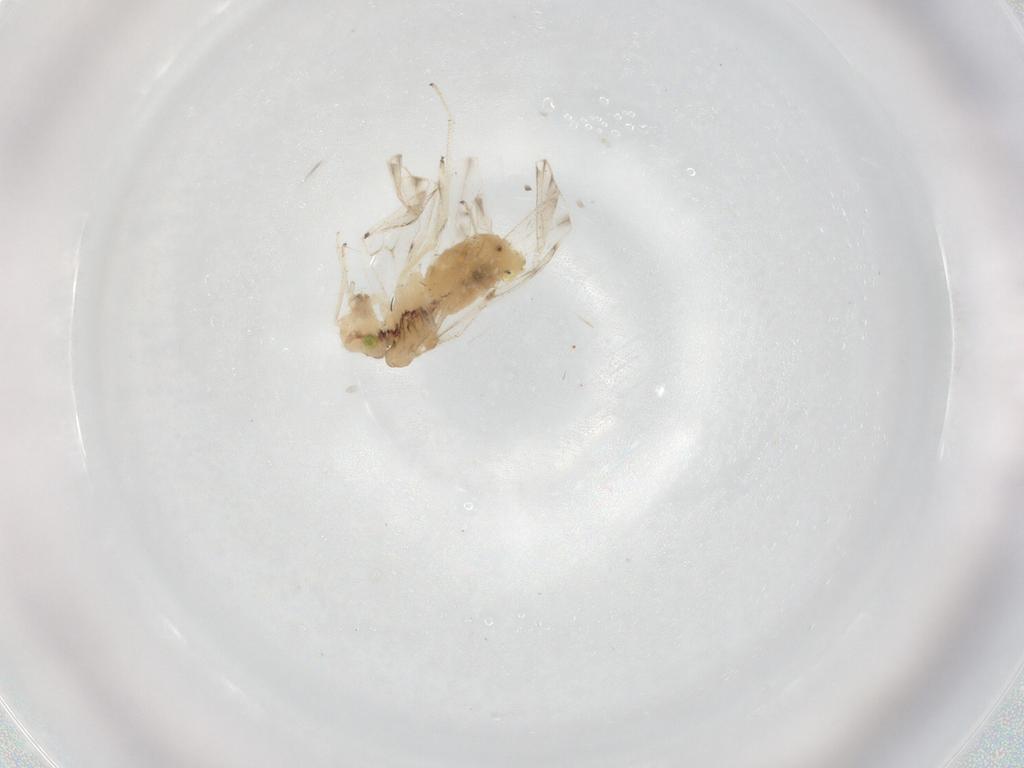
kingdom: Animalia
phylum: Arthropoda
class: Insecta
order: Psocodea
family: Ectopsocidae
